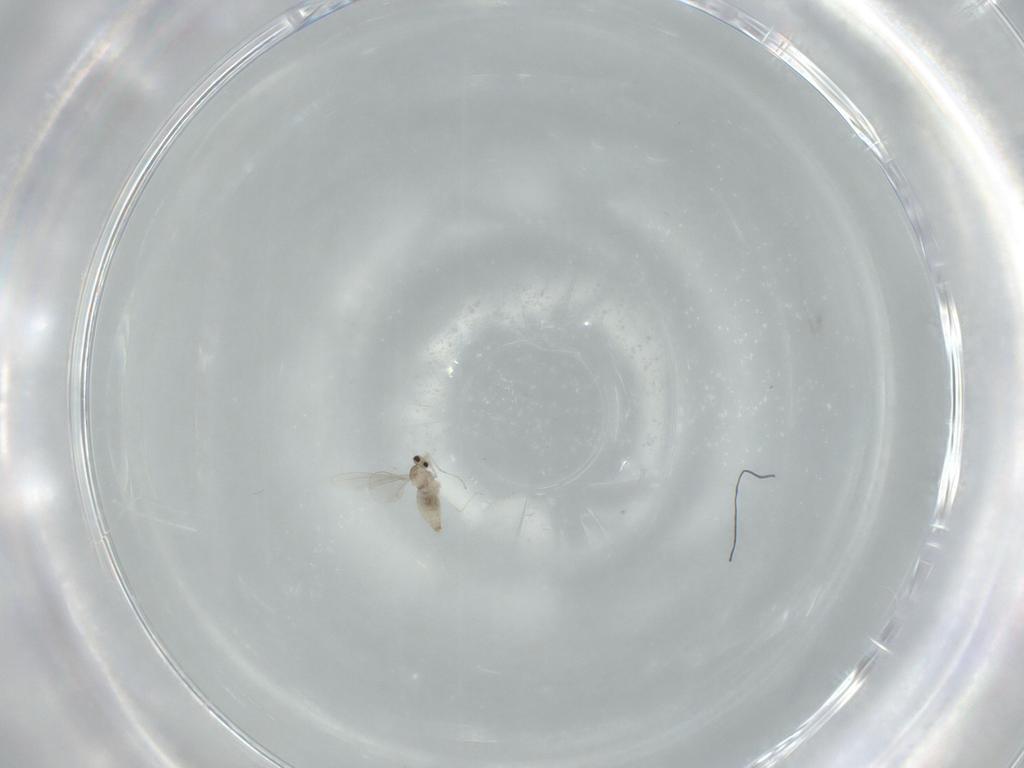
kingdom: Animalia
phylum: Arthropoda
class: Insecta
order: Diptera
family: Cecidomyiidae
